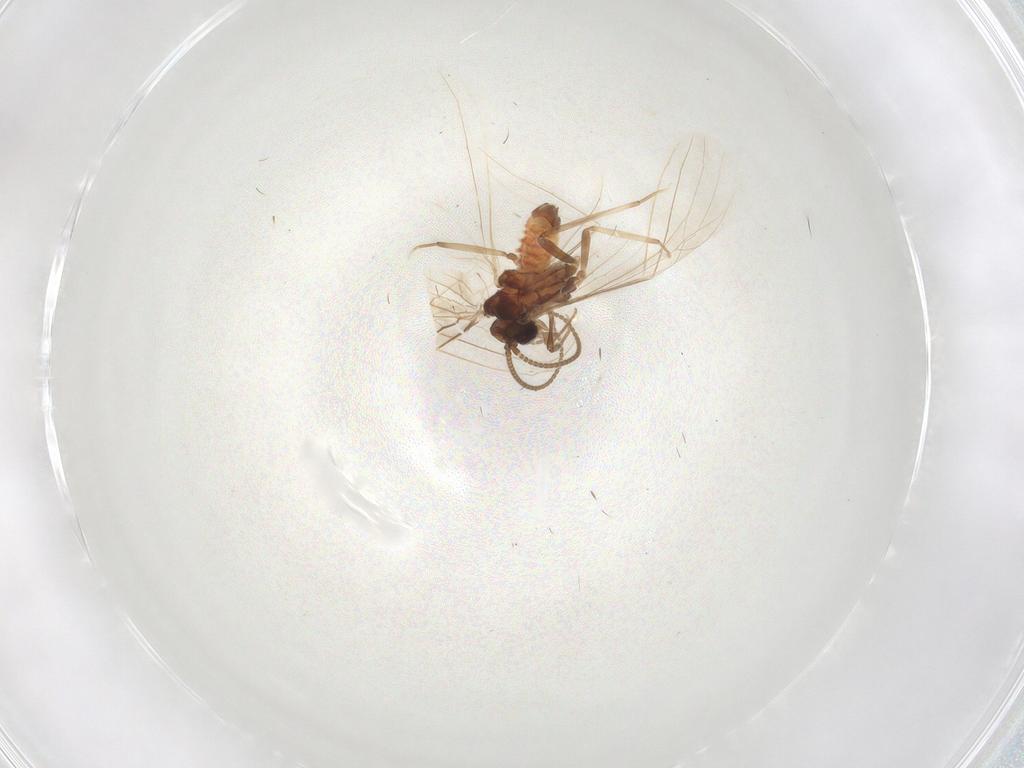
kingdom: Animalia
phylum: Arthropoda
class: Insecta
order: Neuroptera
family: Coniopterygidae
